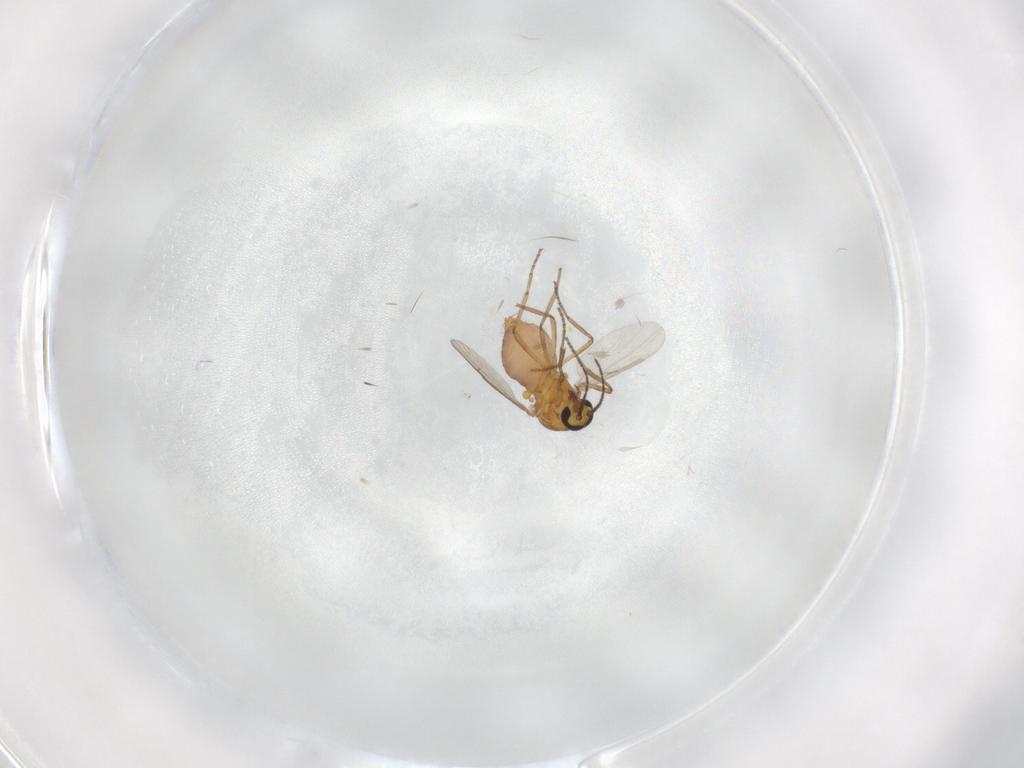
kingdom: Animalia
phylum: Arthropoda
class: Insecta
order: Diptera
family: Ceratopogonidae
